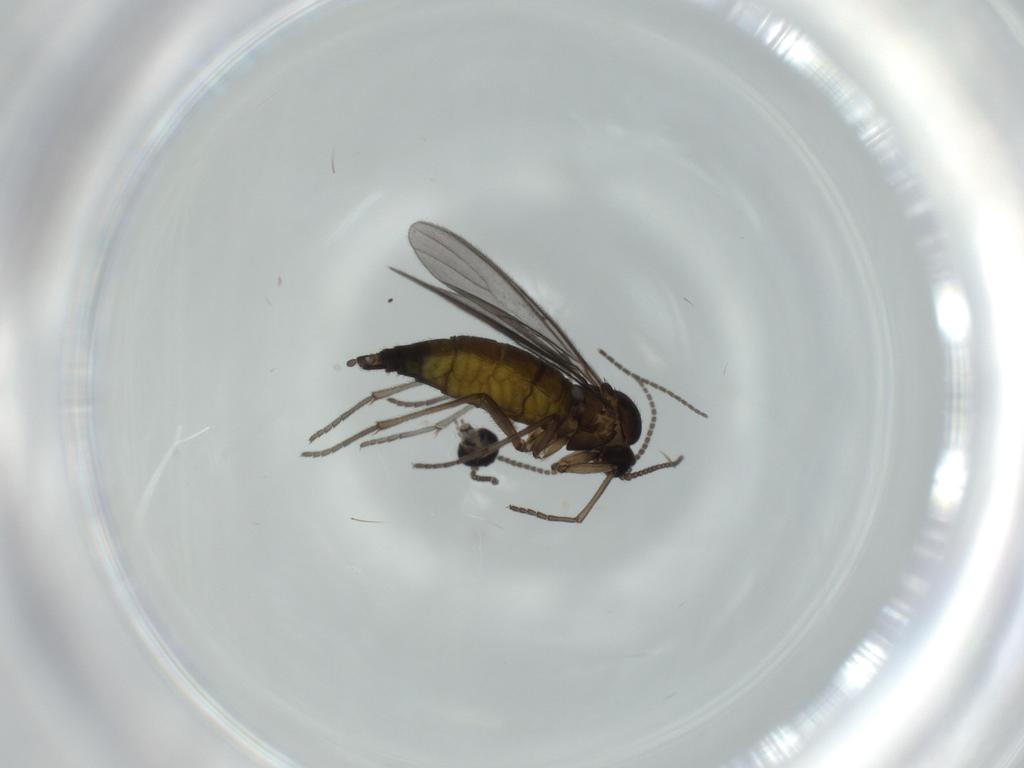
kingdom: Animalia
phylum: Arthropoda
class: Insecta
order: Diptera
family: Sciaridae
